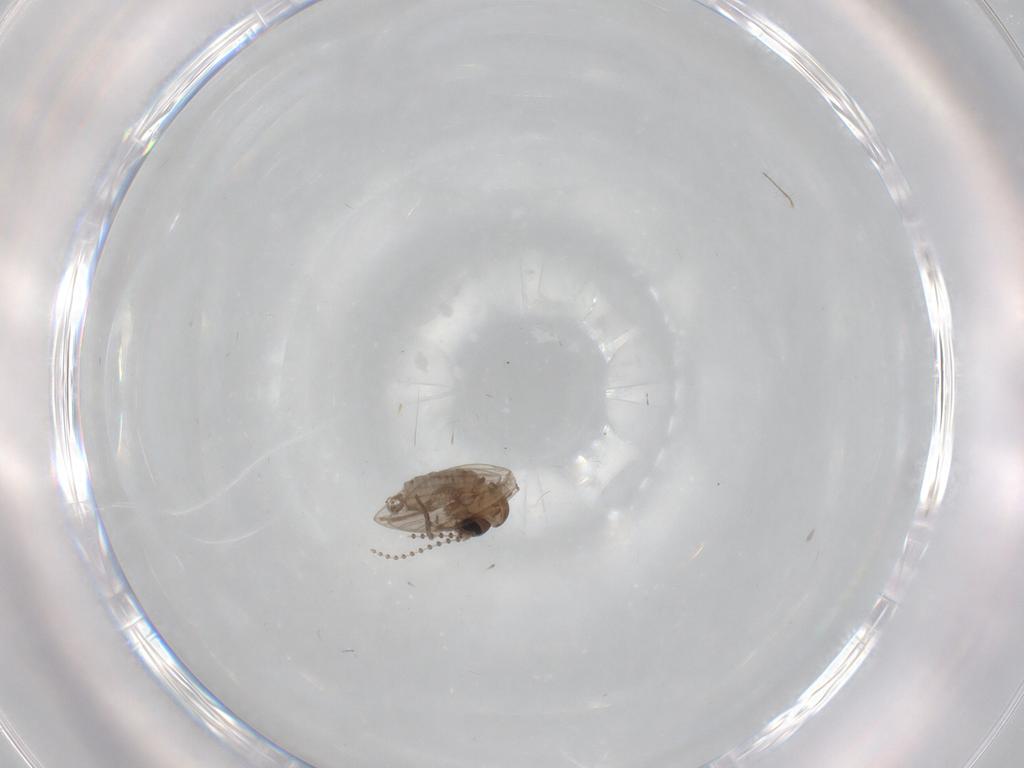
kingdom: Animalia
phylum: Arthropoda
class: Insecta
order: Diptera
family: Psychodidae
